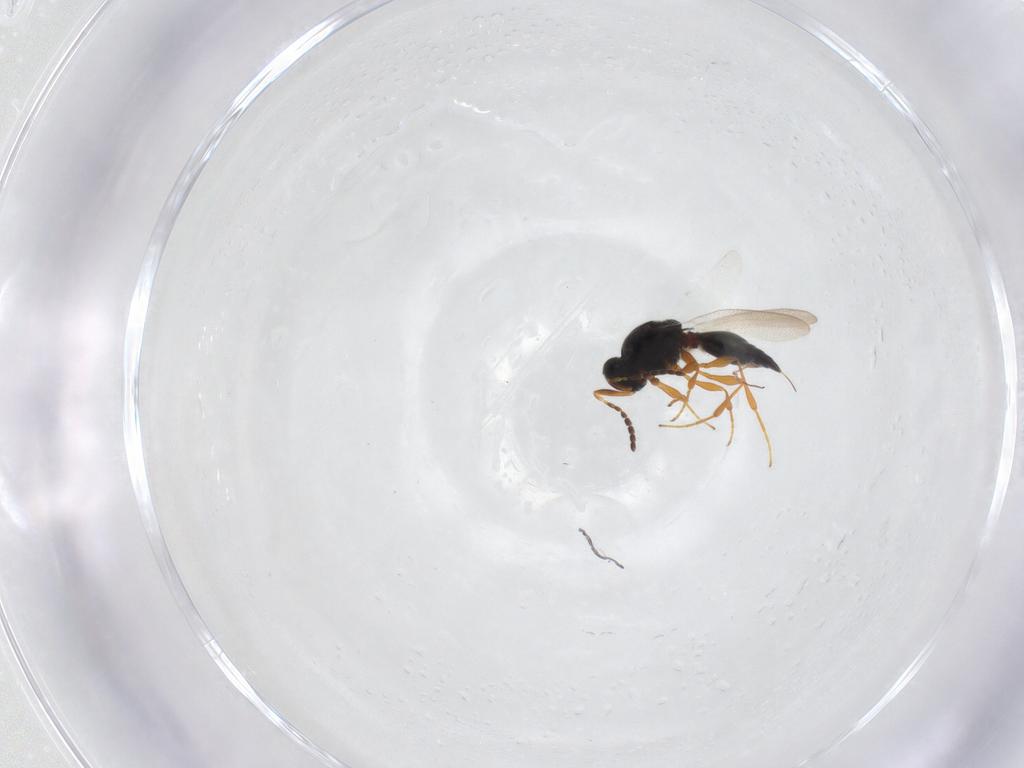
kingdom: Animalia
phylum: Arthropoda
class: Insecta
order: Hymenoptera
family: Platygastridae
